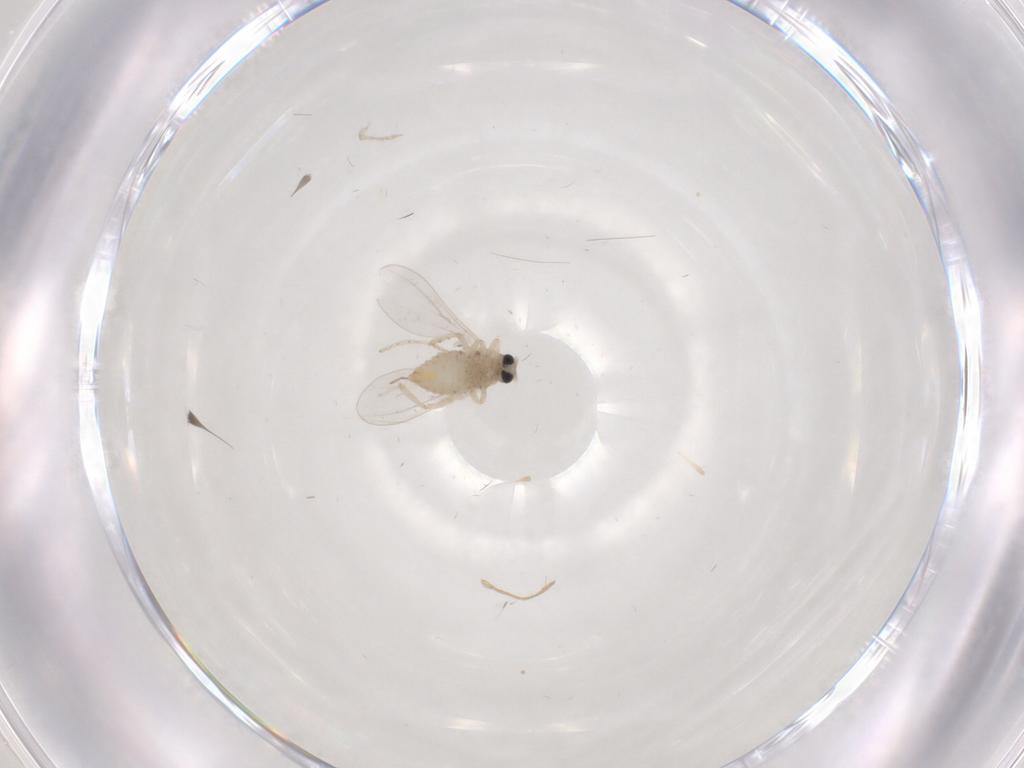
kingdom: Animalia
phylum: Arthropoda
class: Insecta
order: Diptera
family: Cecidomyiidae
